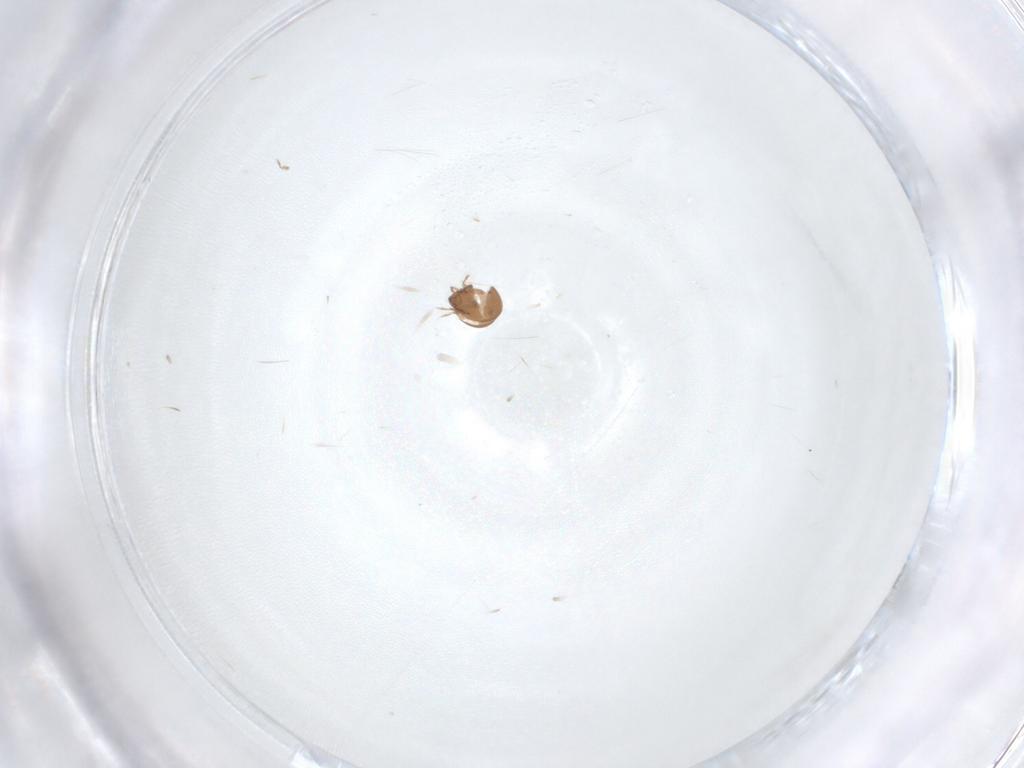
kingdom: Animalia
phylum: Arthropoda
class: Arachnida
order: Sarcoptiformes
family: Scheloribatidae
